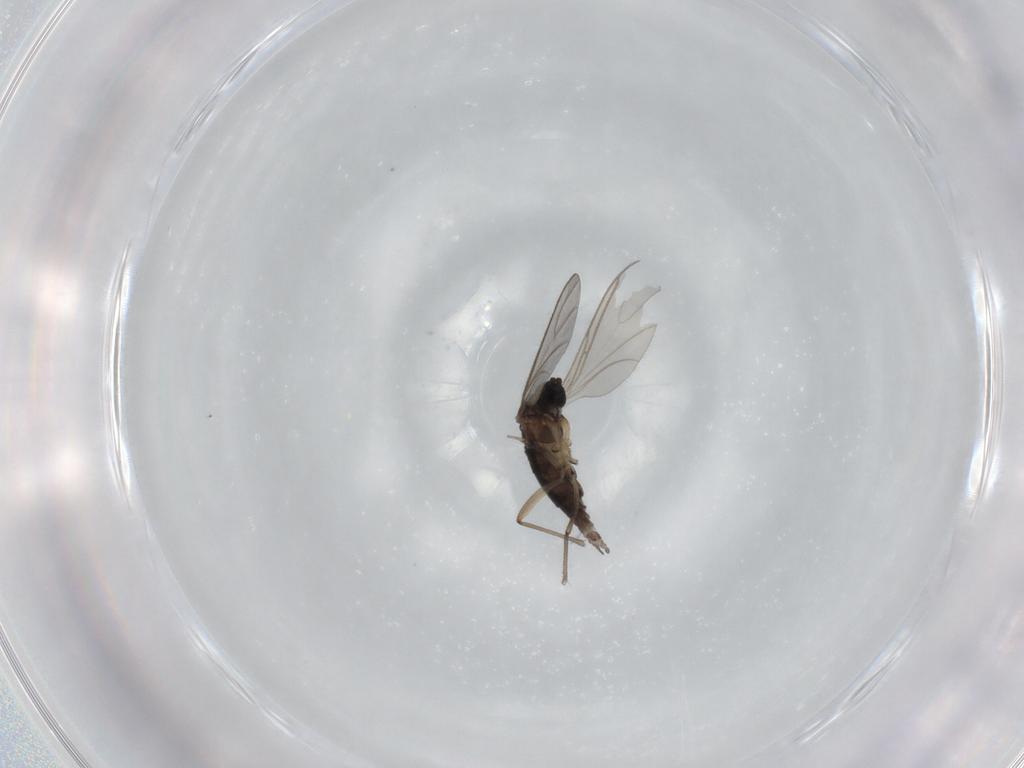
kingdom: Animalia
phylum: Arthropoda
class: Insecta
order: Diptera
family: Sciaridae
